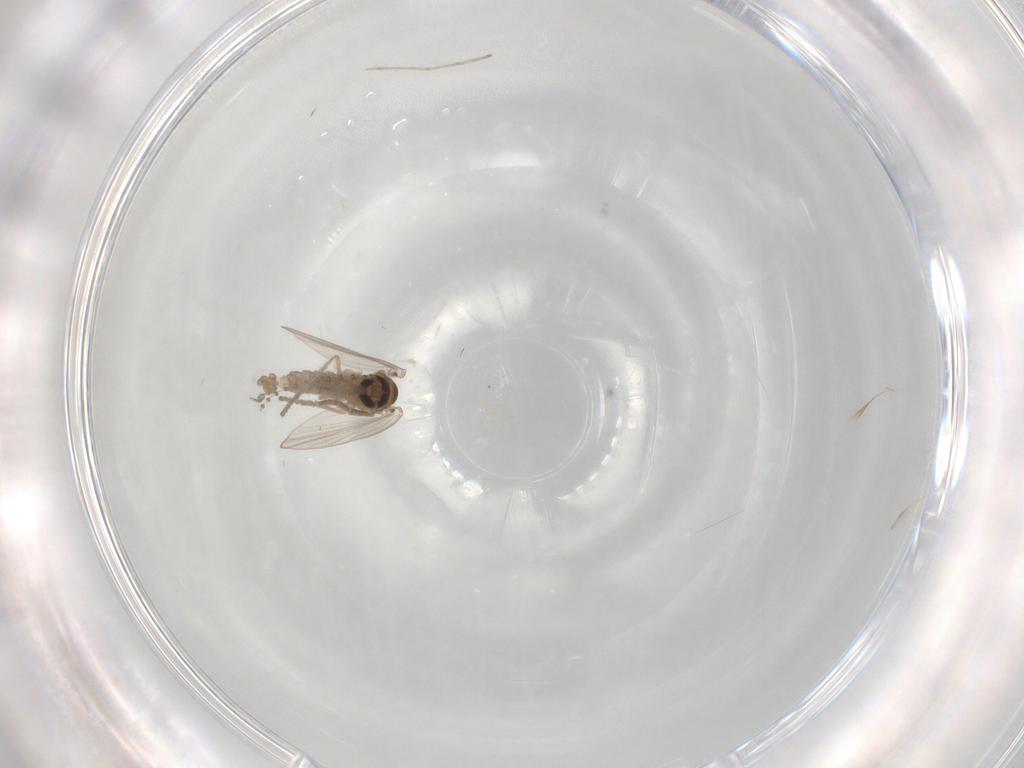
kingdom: Animalia
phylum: Arthropoda
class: Insecta
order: Diptera
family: Psychodidae
